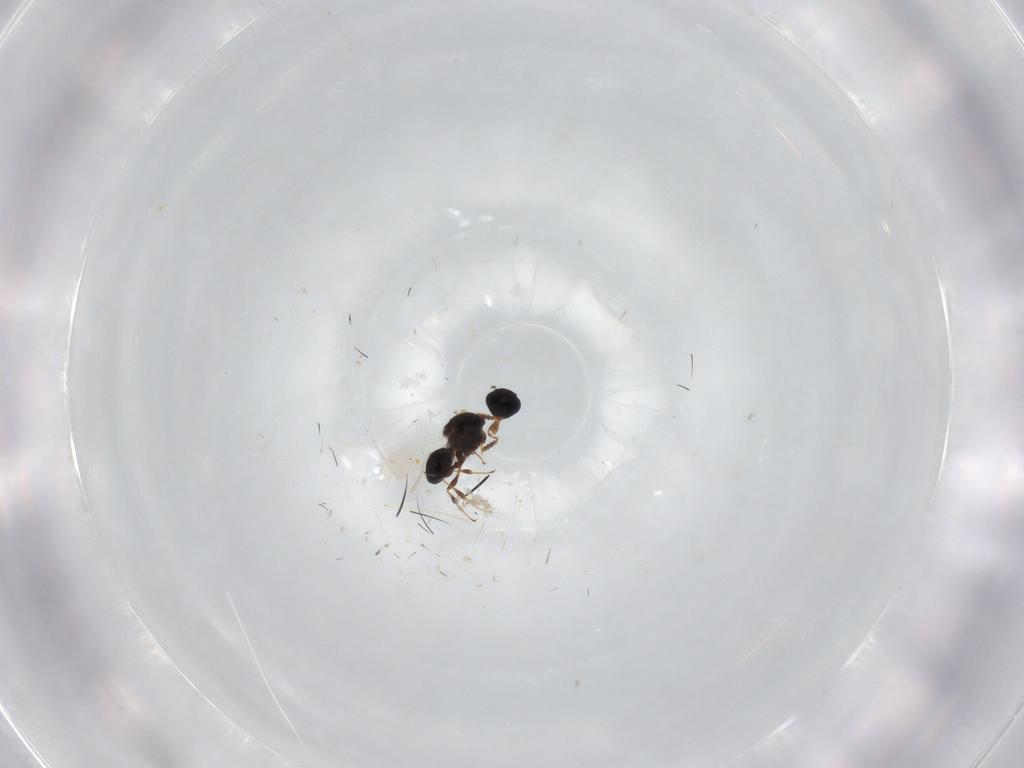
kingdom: Animalia
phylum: Arthropoda
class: Insecta
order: Hymenoptera
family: Platygastridae
